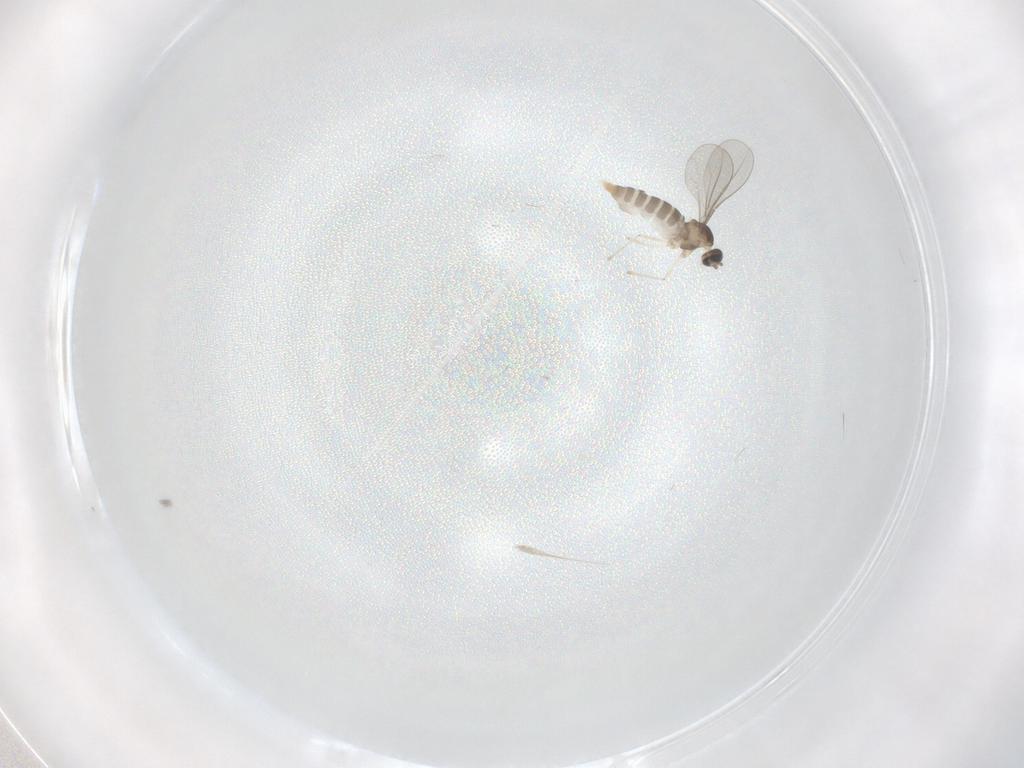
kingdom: Animalia
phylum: Arthropoda
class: Insecta
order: Diptera
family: Cecidomyiidae
